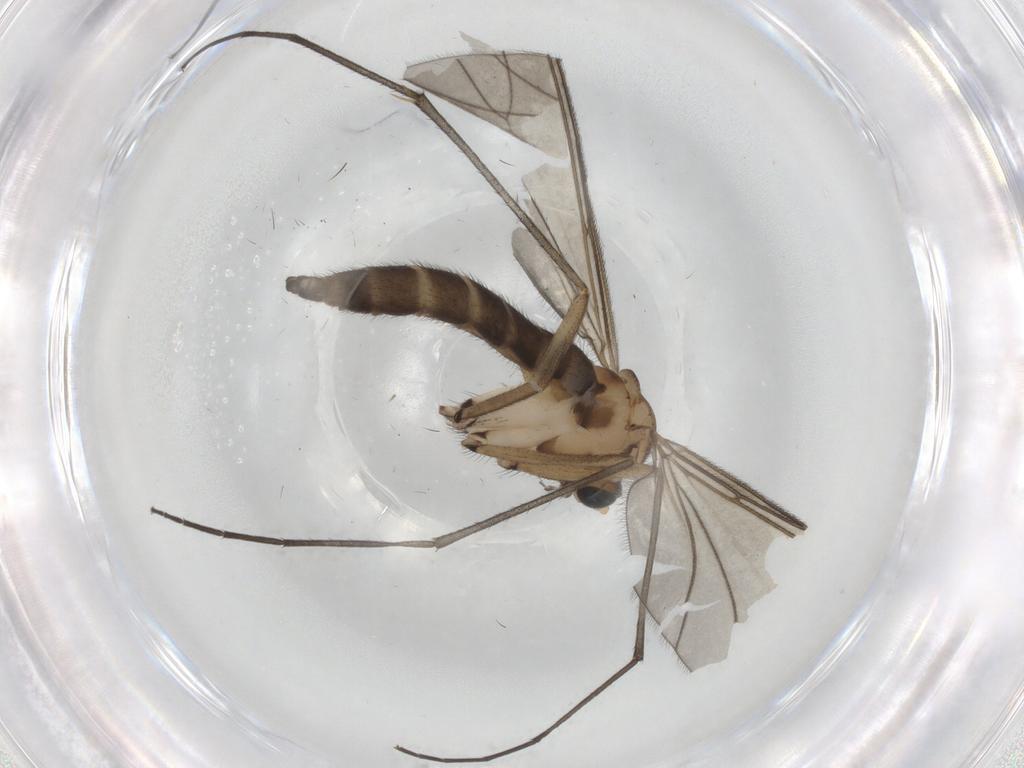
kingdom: Animalia
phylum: Arthropoda
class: Insecta
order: Diptera
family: Sciaridae
